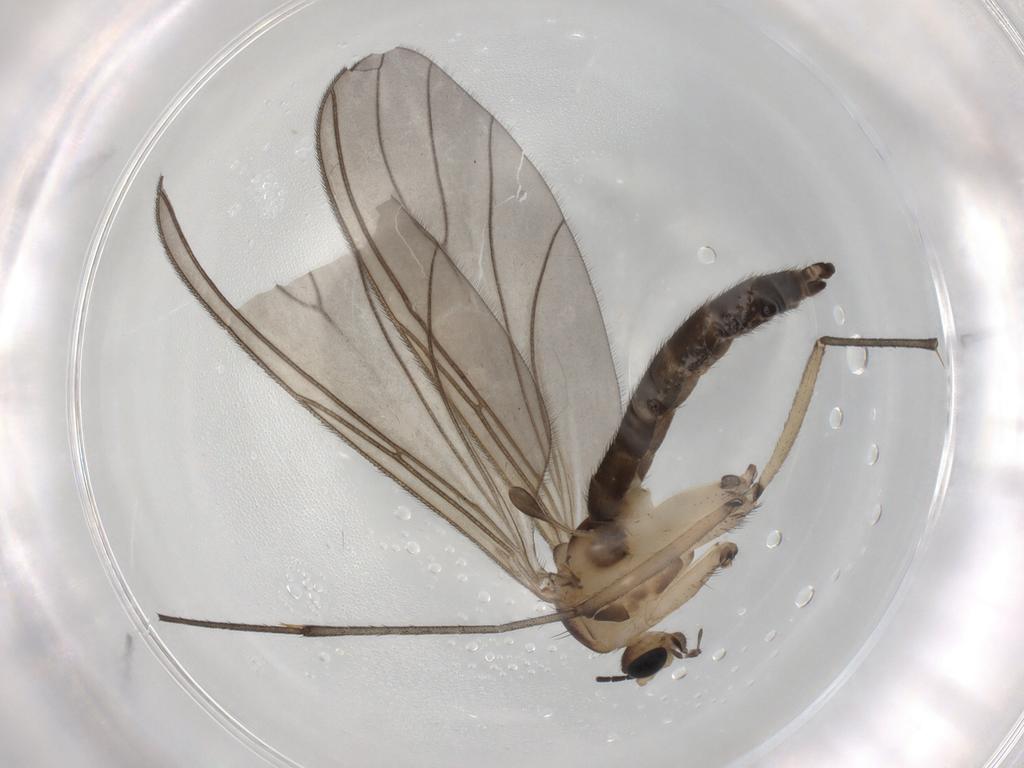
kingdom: Animalia
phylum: Arthropoda
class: Insecta
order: Diptera
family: Sciaridae
